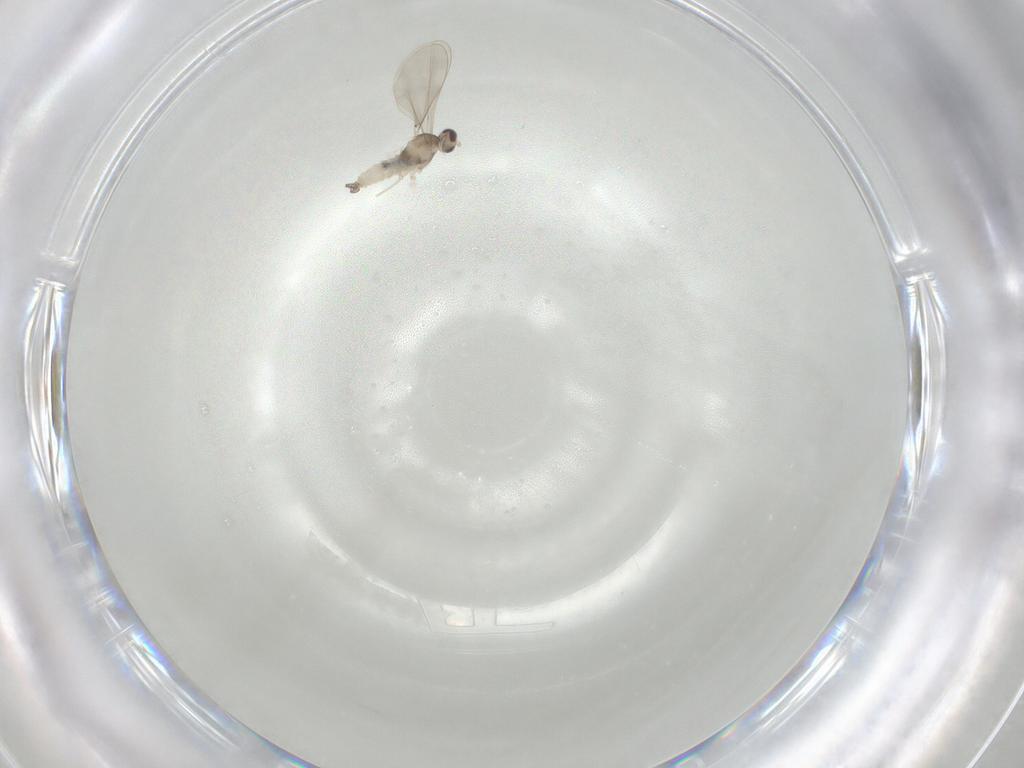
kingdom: Animalia
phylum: Arthropoda
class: Insecta
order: Diptera
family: Cecidomyiidae
